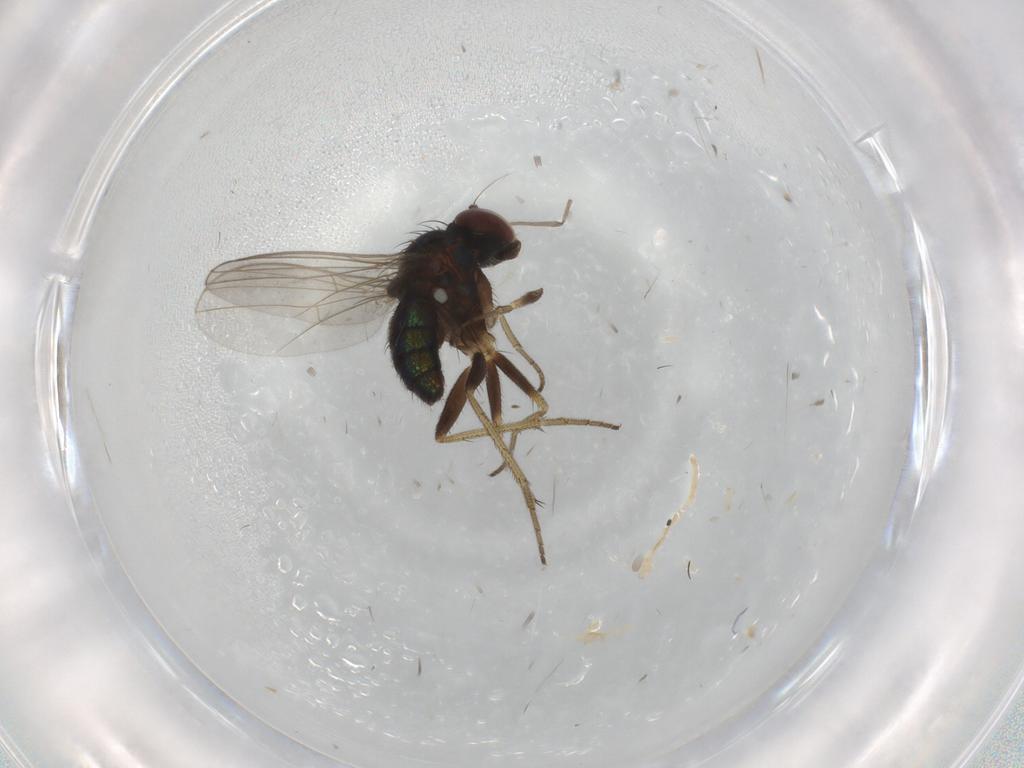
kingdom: Animalia
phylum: Arthropoda
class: Insecta
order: Diptera
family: Dolichopodidae
